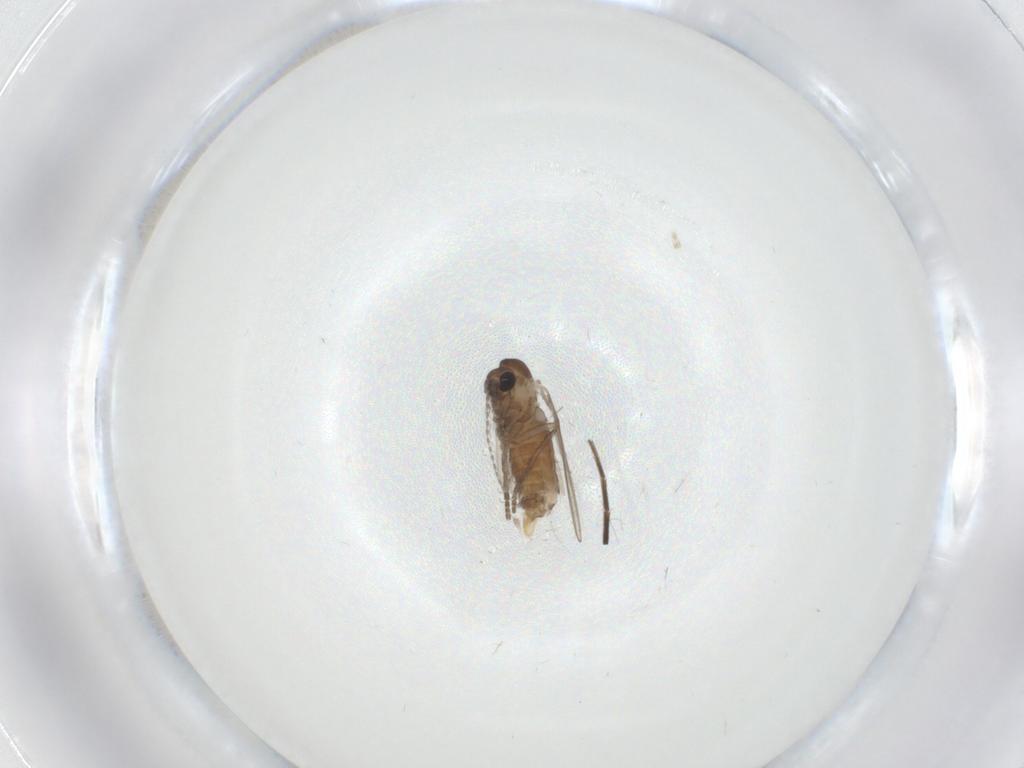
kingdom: Animalia
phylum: Arthropoda
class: Insecta
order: Diptera
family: Phoridae
